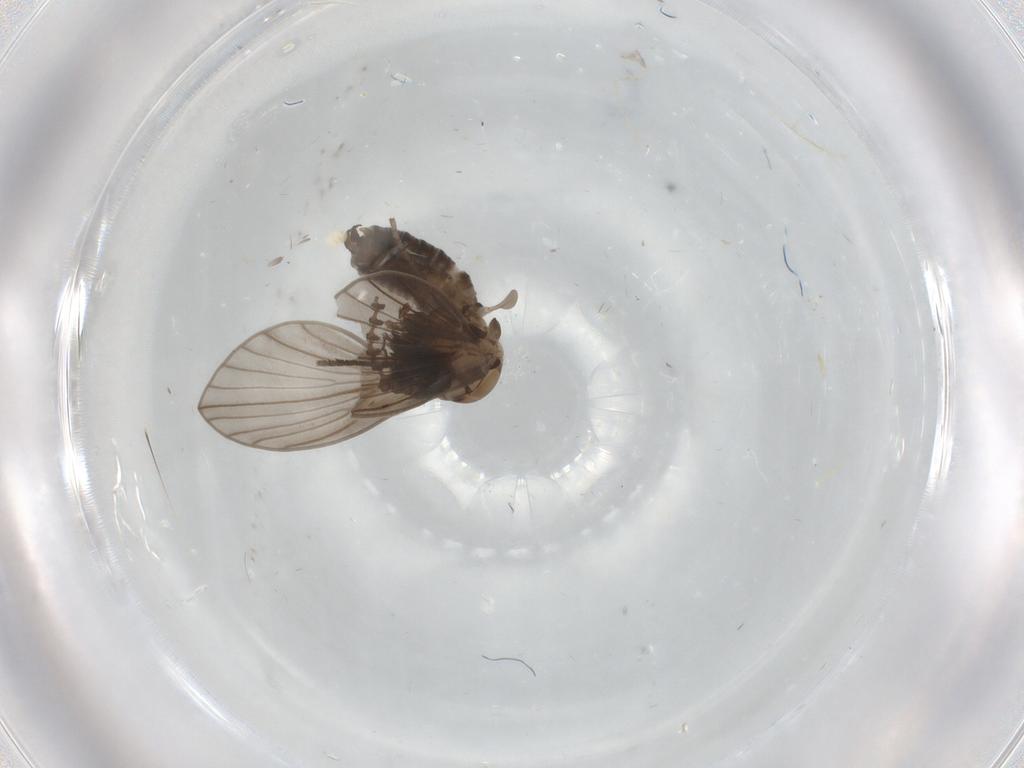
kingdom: Animalia
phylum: Arthropoda
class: Insecta
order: Diptera
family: Psychodidae
